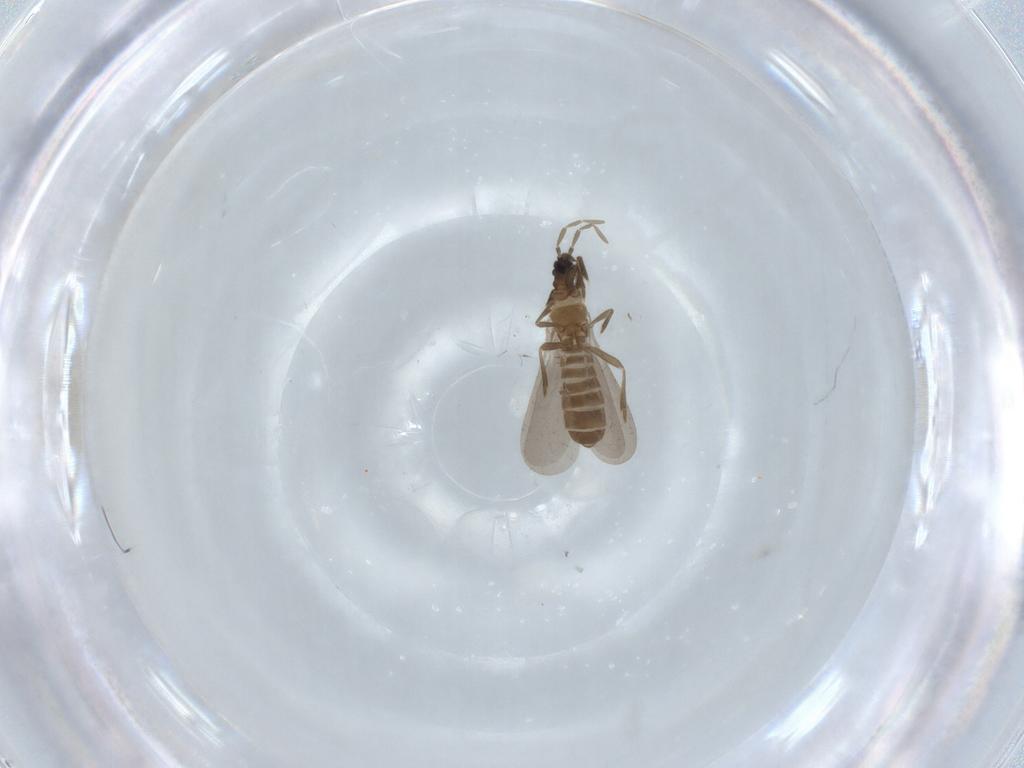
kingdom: Animalia
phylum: Arthropoda
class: Insecta
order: Hemiptera
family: Enicocephalidae
